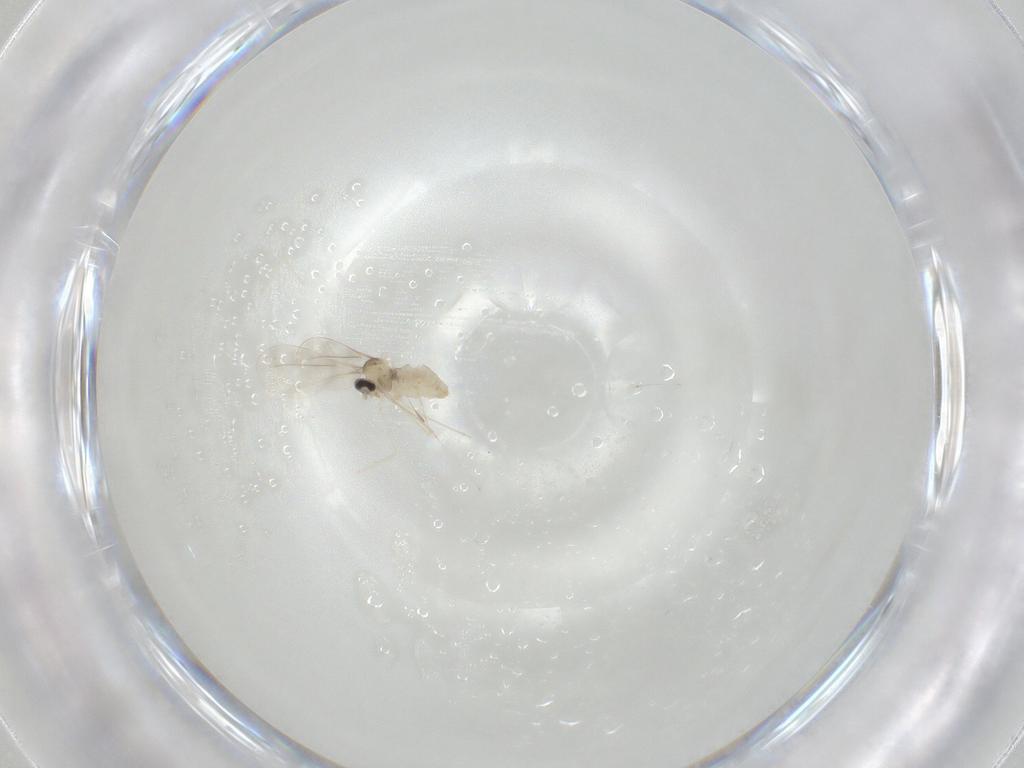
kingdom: Animalia
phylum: Arthropoda
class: Insecta
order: Diptera
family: Cecidomyiidae
